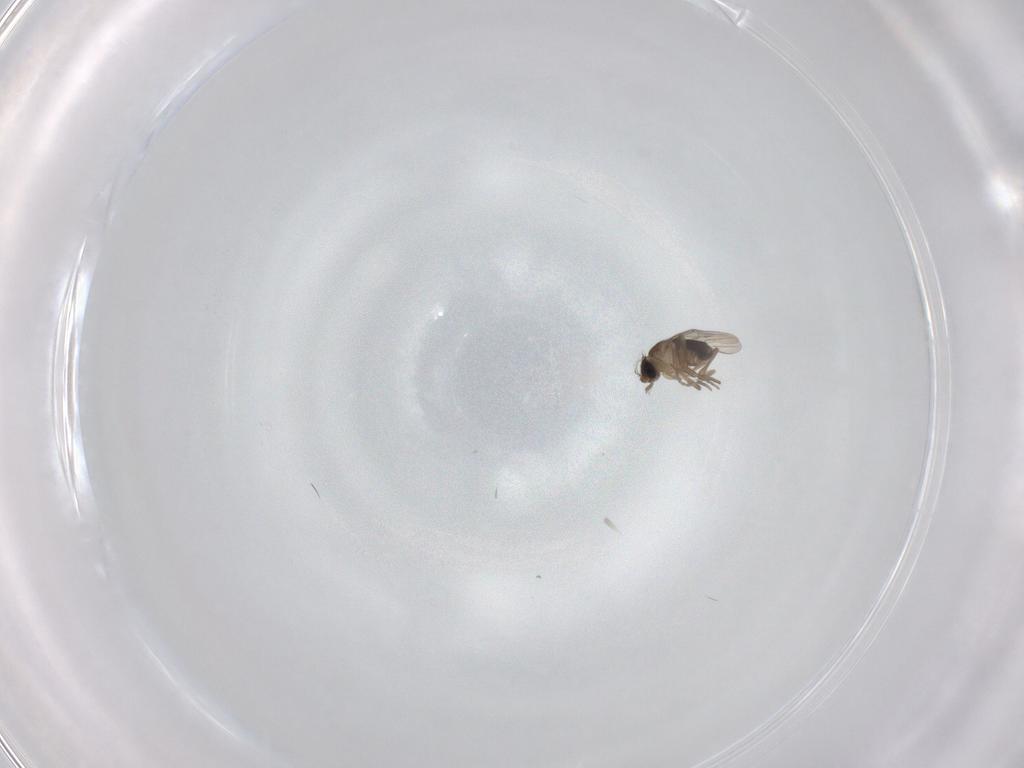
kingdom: Animalia
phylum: Arthropoda
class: Insecta
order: Diptera
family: Phoridae
